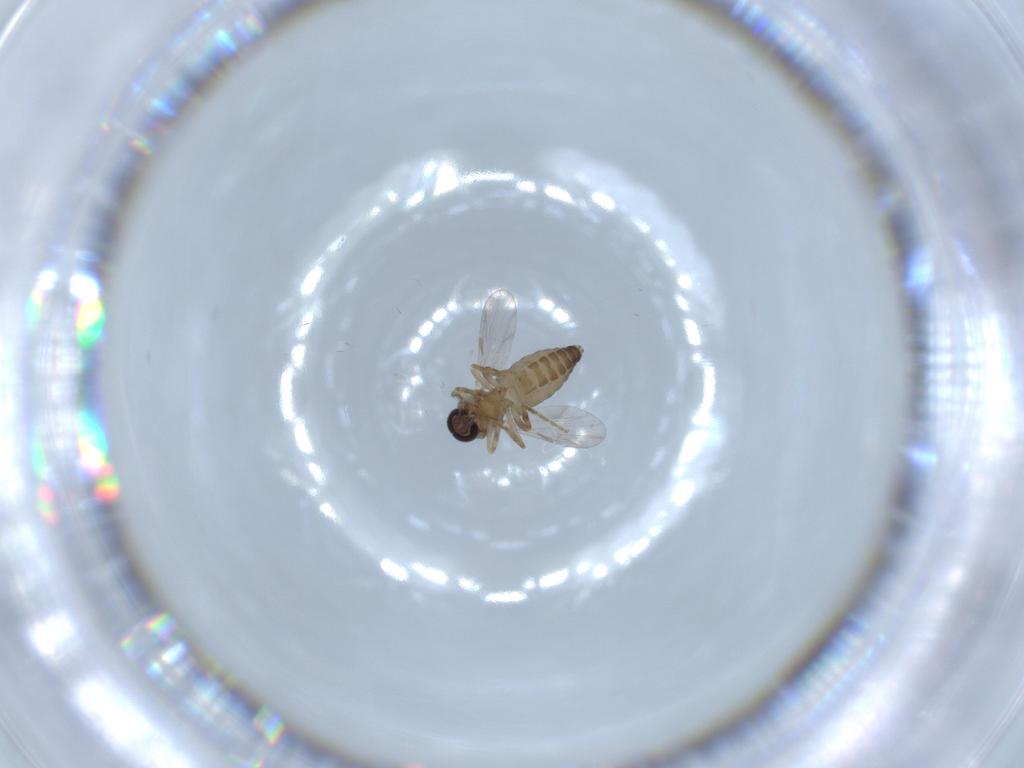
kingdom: Animalia
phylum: Arthropoda
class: Insecta
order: Diptera
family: Ceratopogonidae
